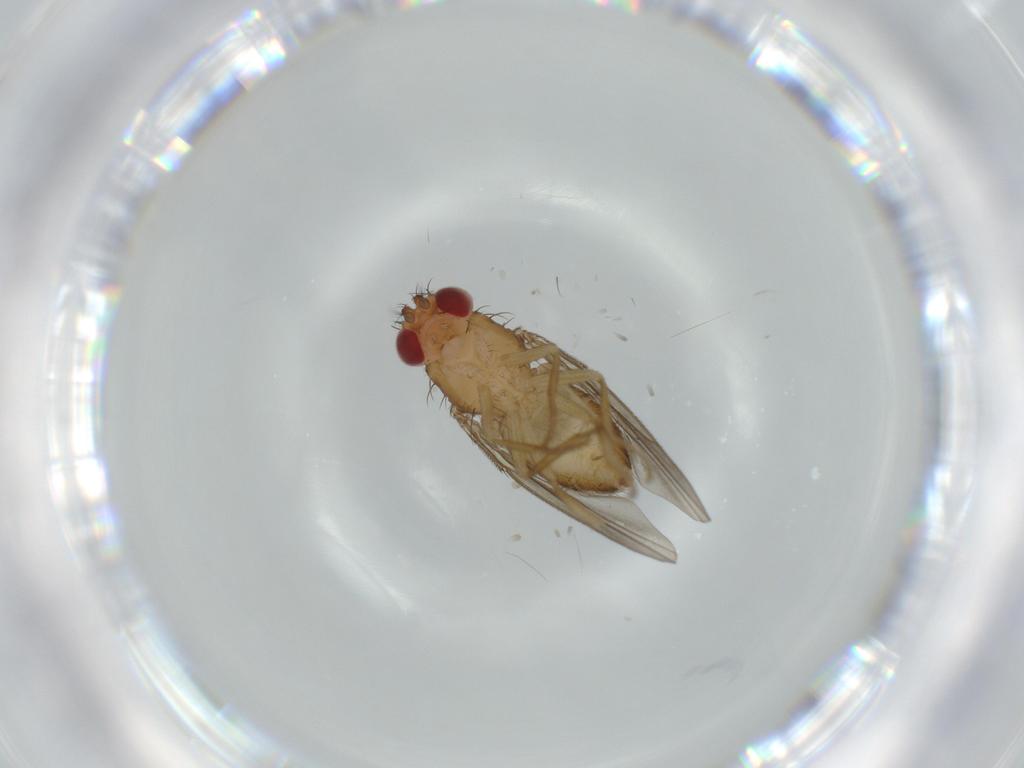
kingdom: Animalia
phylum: Arthropoda
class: Insecta
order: Diptera
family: Drosophilidae
